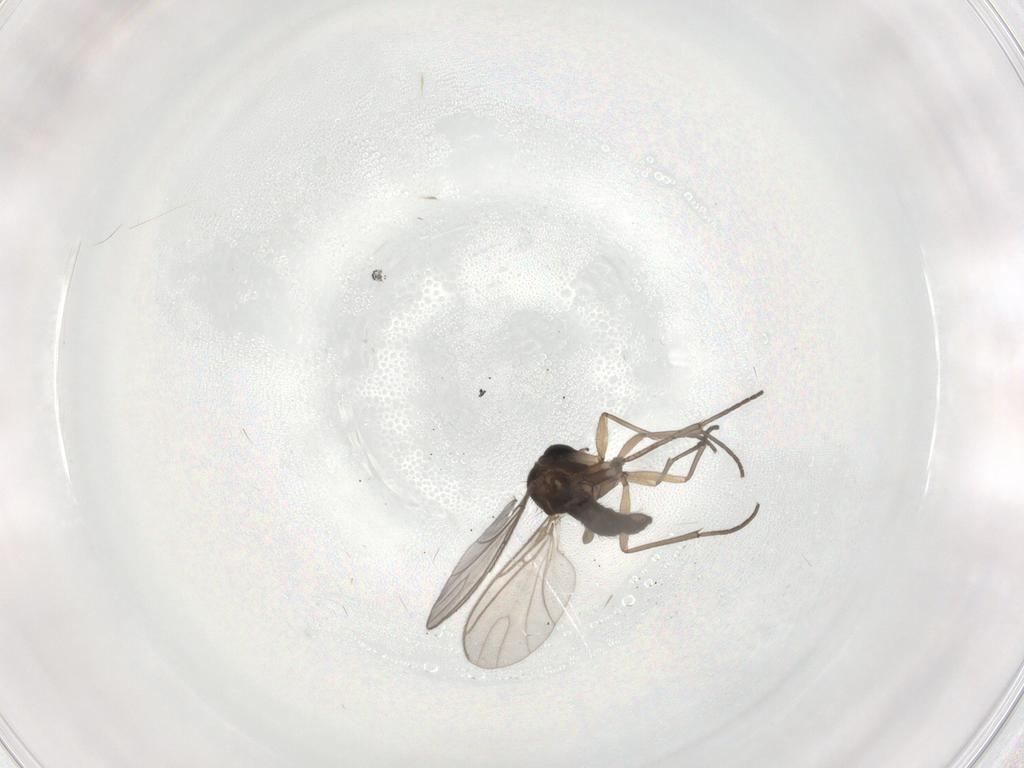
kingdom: Animalia
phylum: Arthropoda
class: Insecta
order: Diptera
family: Sciaridae
